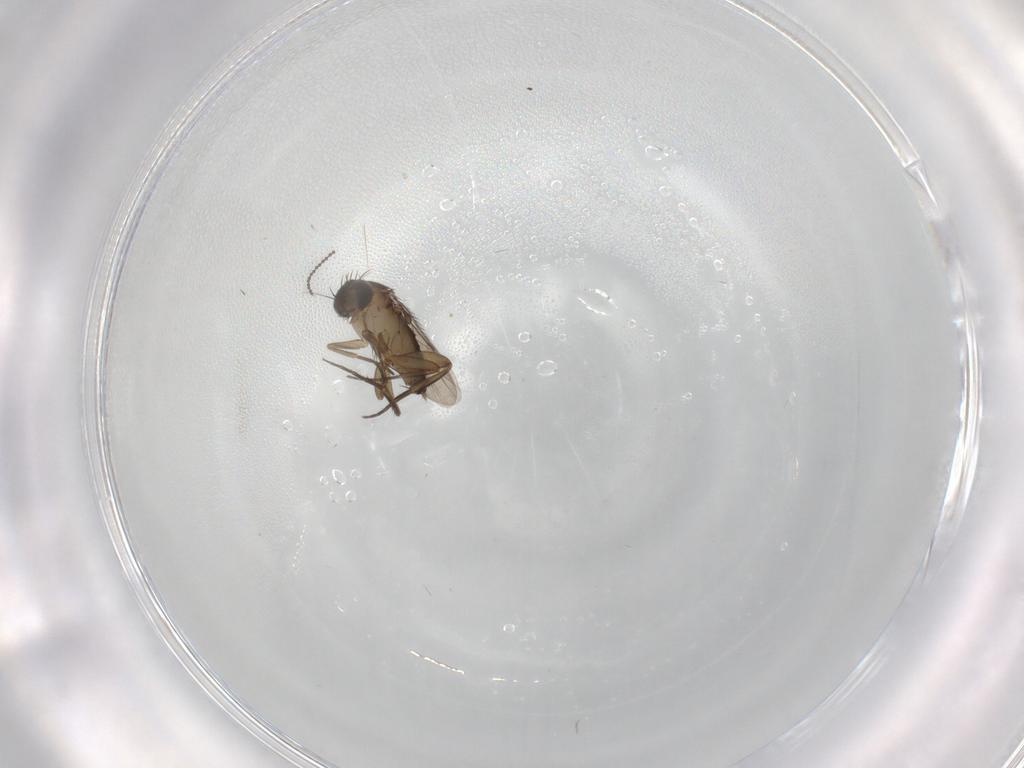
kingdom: Animalia
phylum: Arthropoda
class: Insecta
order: Diptera
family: Phoridae
